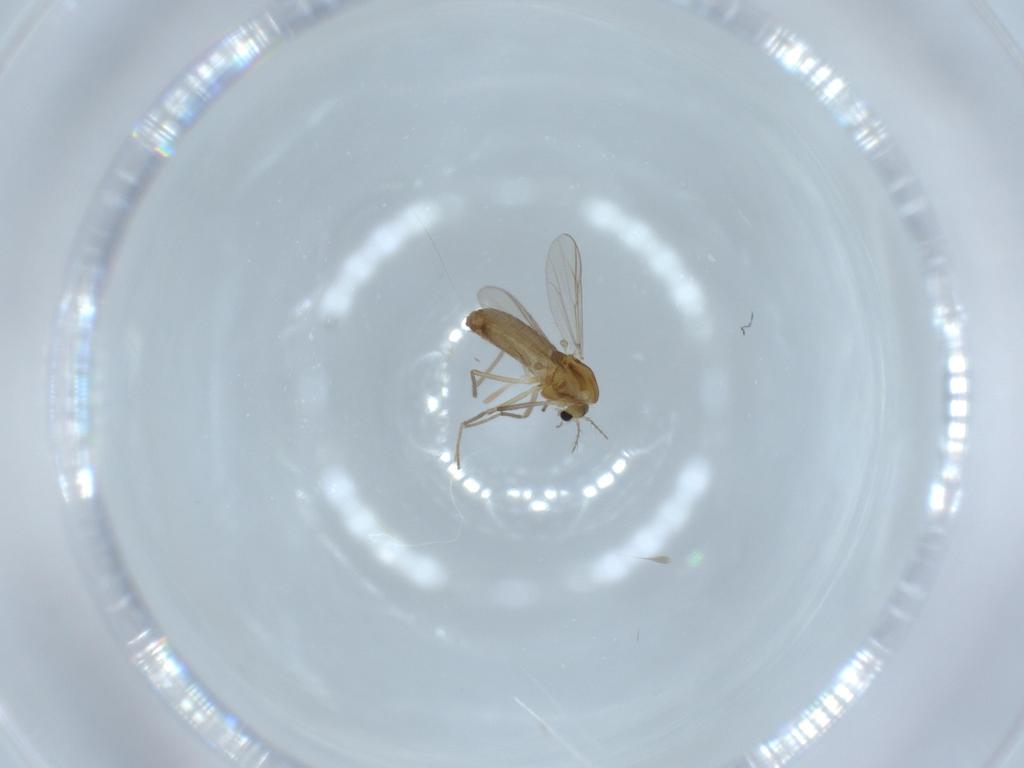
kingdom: Animalia
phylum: Arthropoda
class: Insecta
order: Diptera
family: Chironomidae
